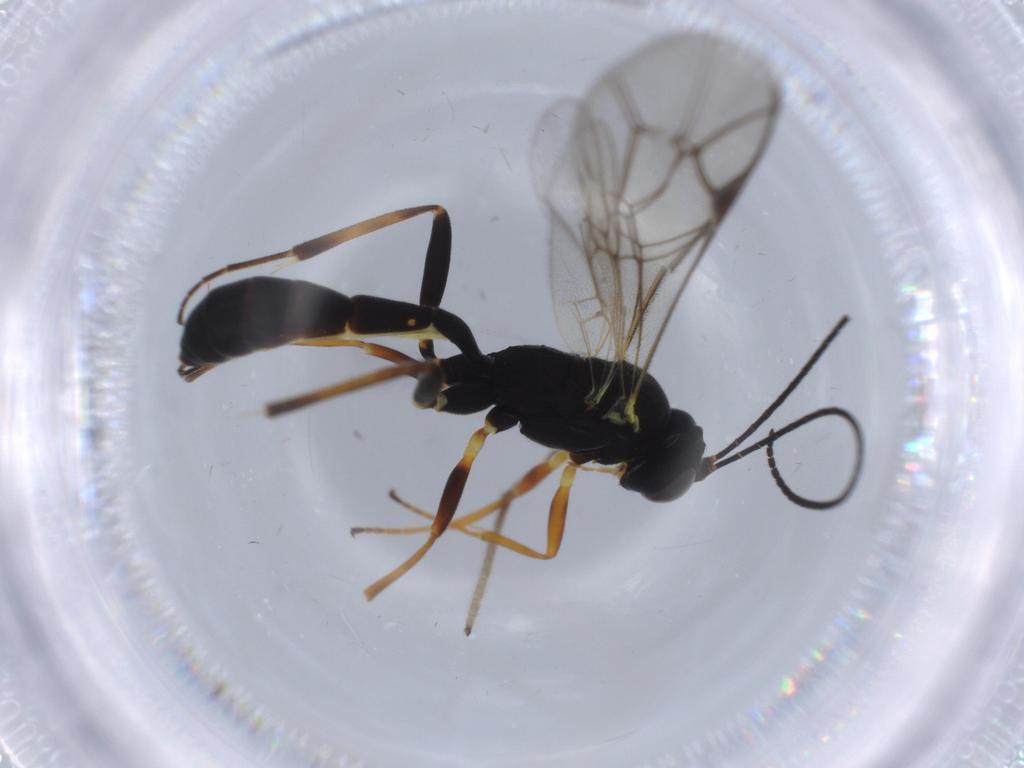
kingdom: Animalia
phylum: Arthropoda
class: Insecta
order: Hymenoptera
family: Ichneumonidae
